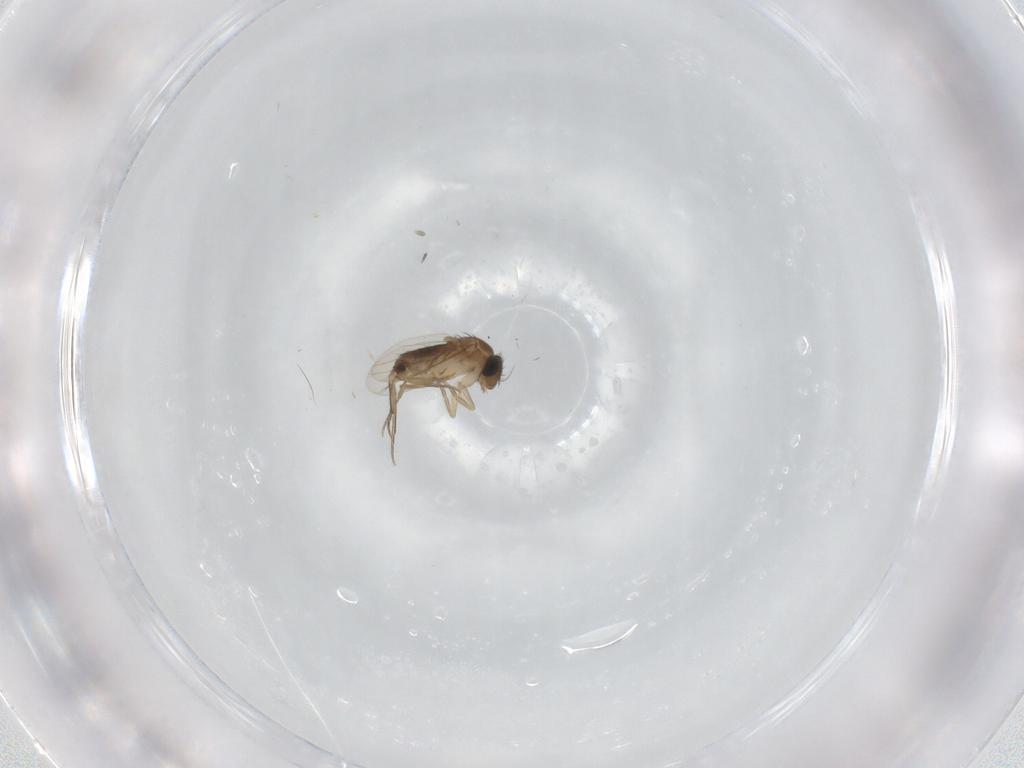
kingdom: Animalia
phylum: Arthropoda
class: Insecta
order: Diptera
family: Phoridae
